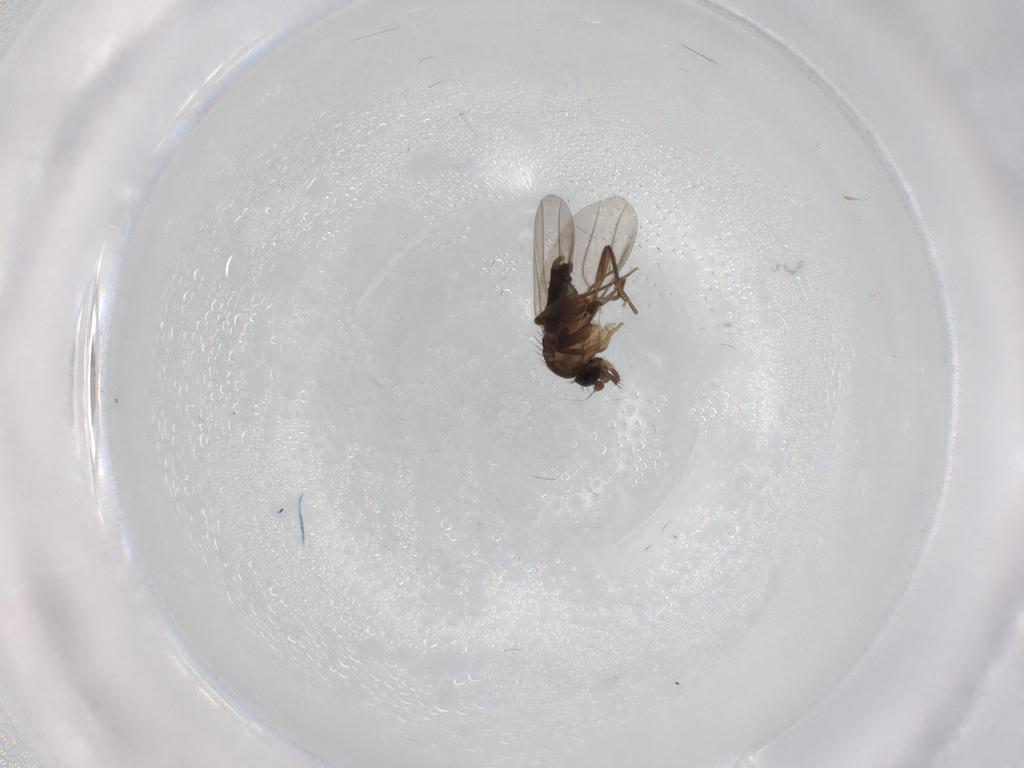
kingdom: Animalia
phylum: Arthropoda
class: Insecta
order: Diptera
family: Phoridae
